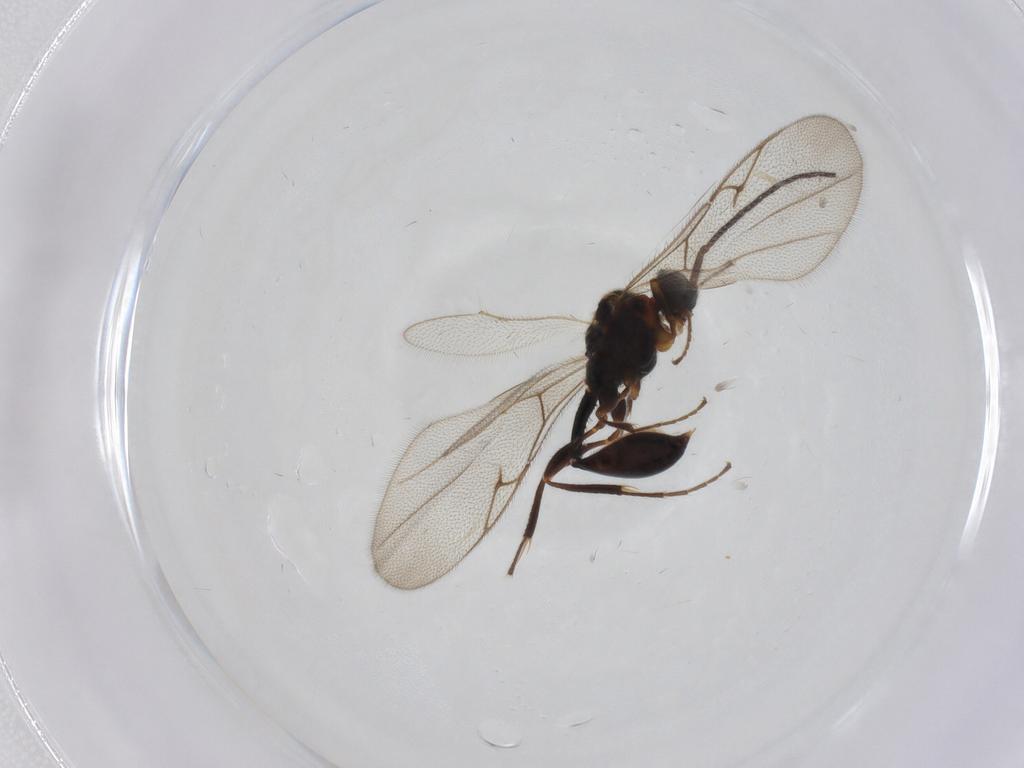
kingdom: Animalia
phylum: Arthropoda
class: Insecta
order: Hymenoptera
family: Diapriidae
